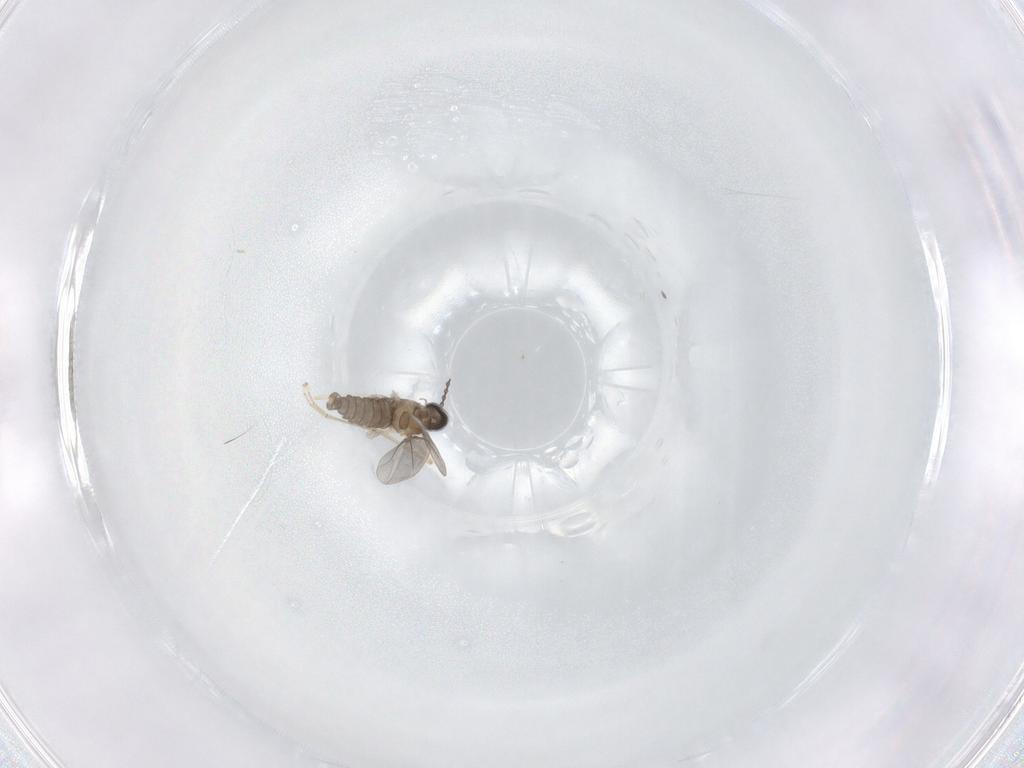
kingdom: Animalia
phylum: Arthropoda
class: Insecta
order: Diptera
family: Cecidomyiidae
